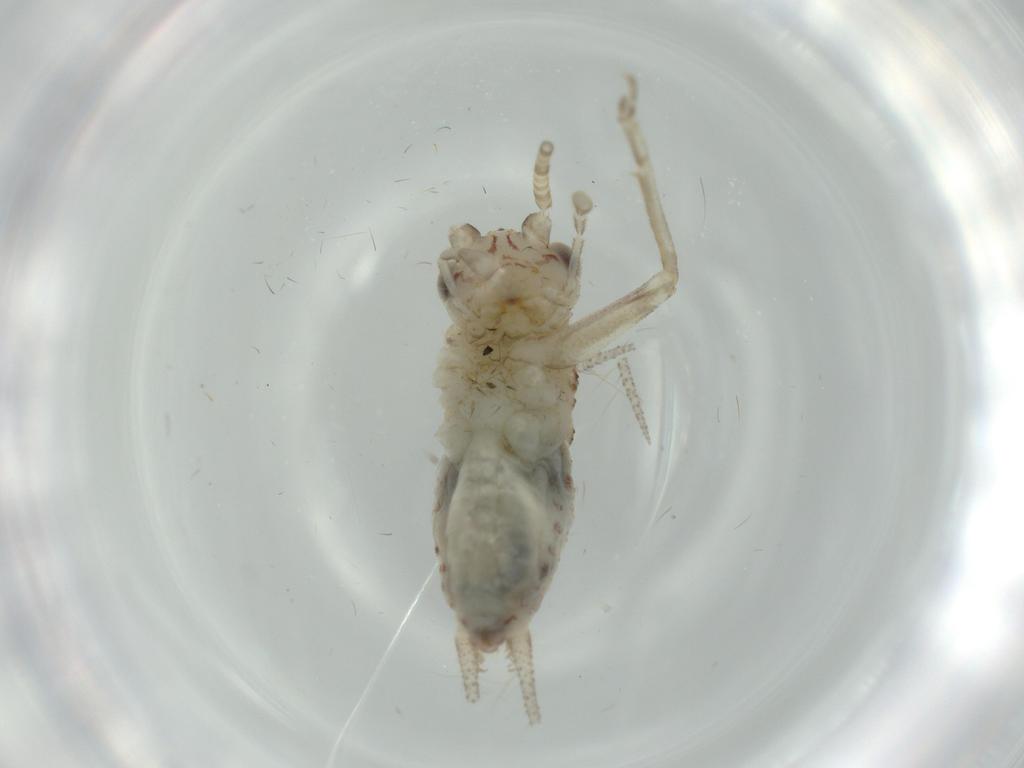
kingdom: Animalia
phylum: Arthropoda
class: Insecta
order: Orthoptera
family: Trigonidiidae
